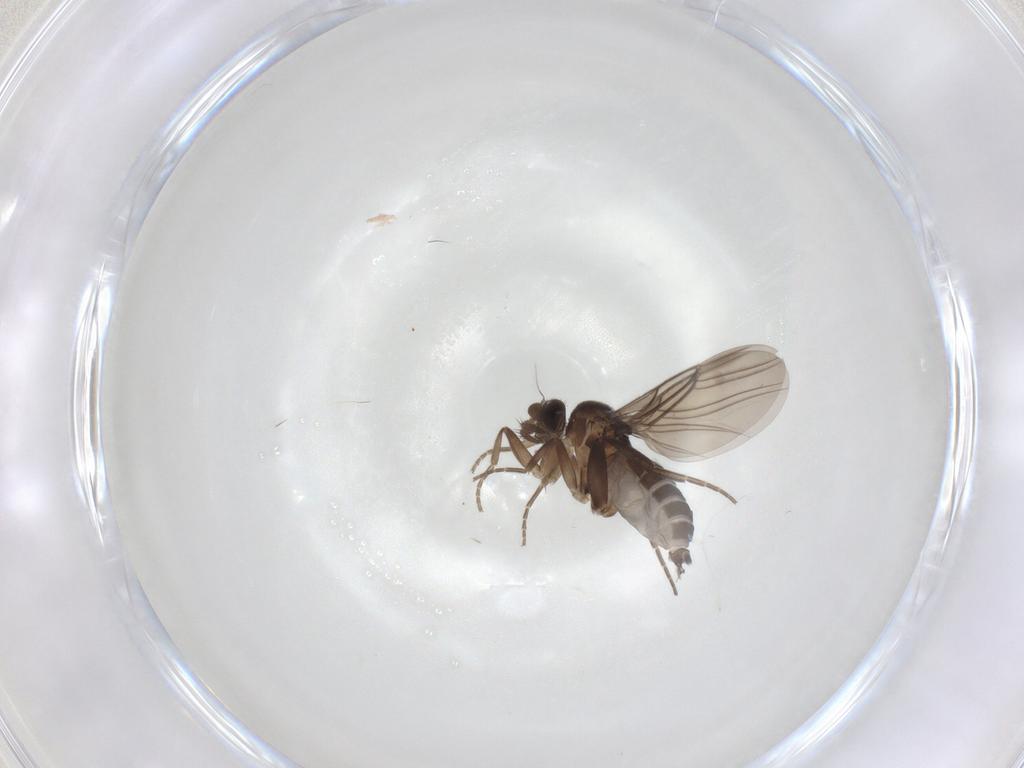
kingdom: Animalia
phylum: Arthropoda
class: Insecta
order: Diptera
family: Phoridae
